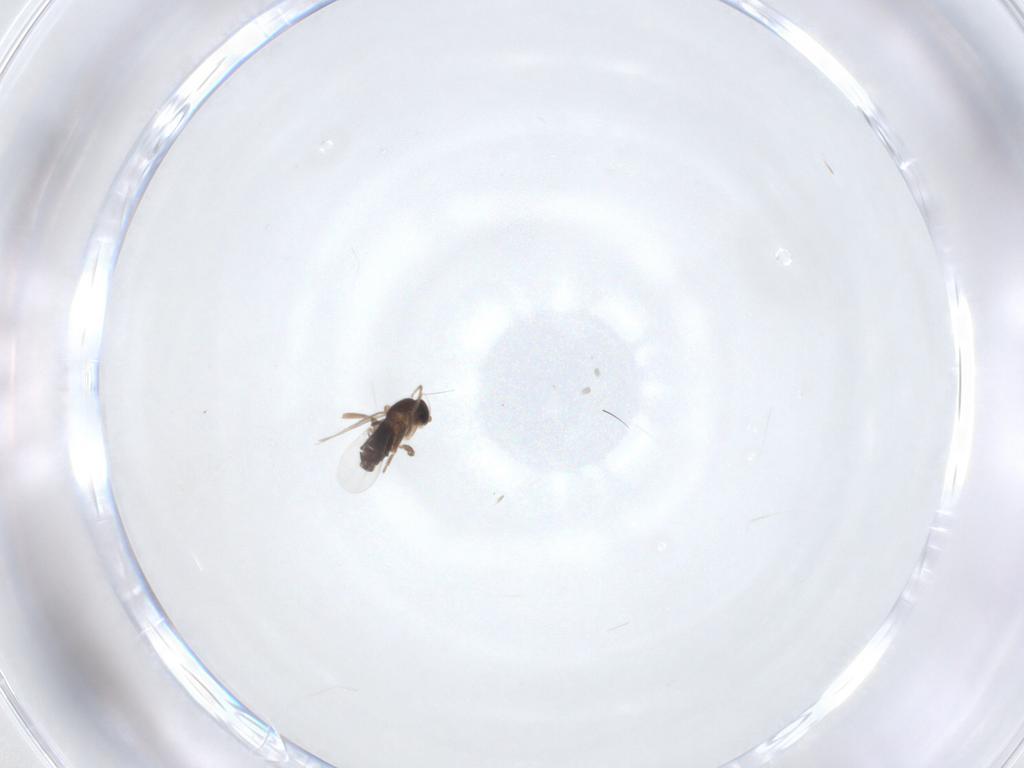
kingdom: Animalia
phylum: Arthropoda
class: Insecta
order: Diptera
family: Phoridae
